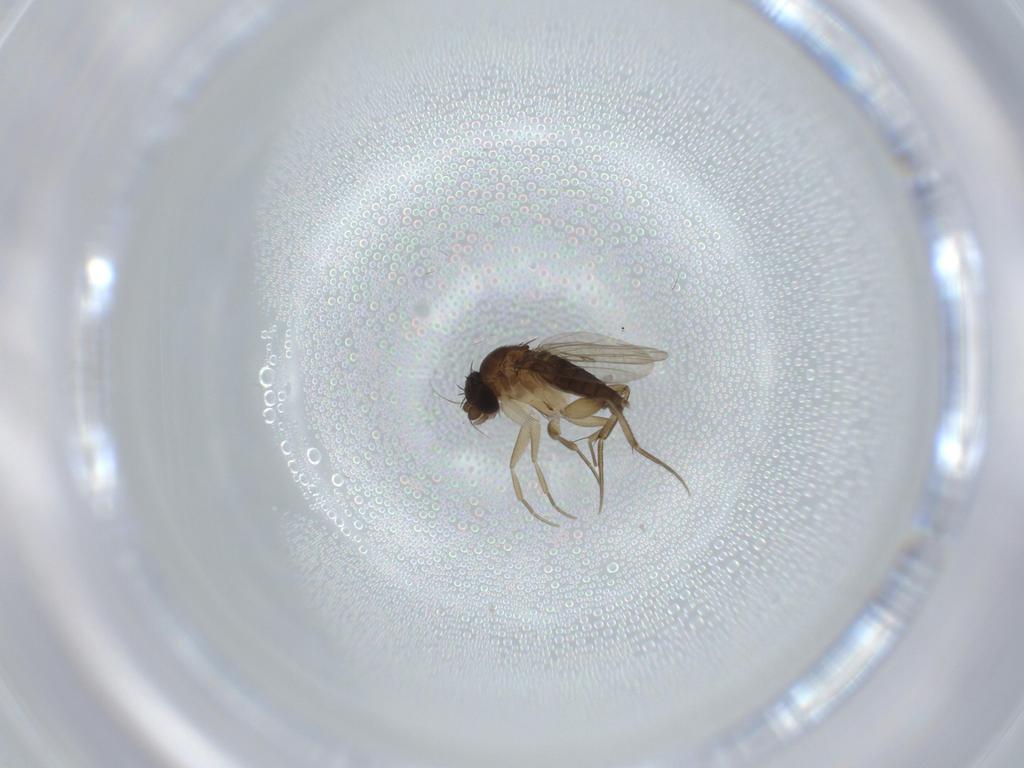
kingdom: Animalia
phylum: Arthropoda
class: Insecta
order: Diptera
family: Phoridae
